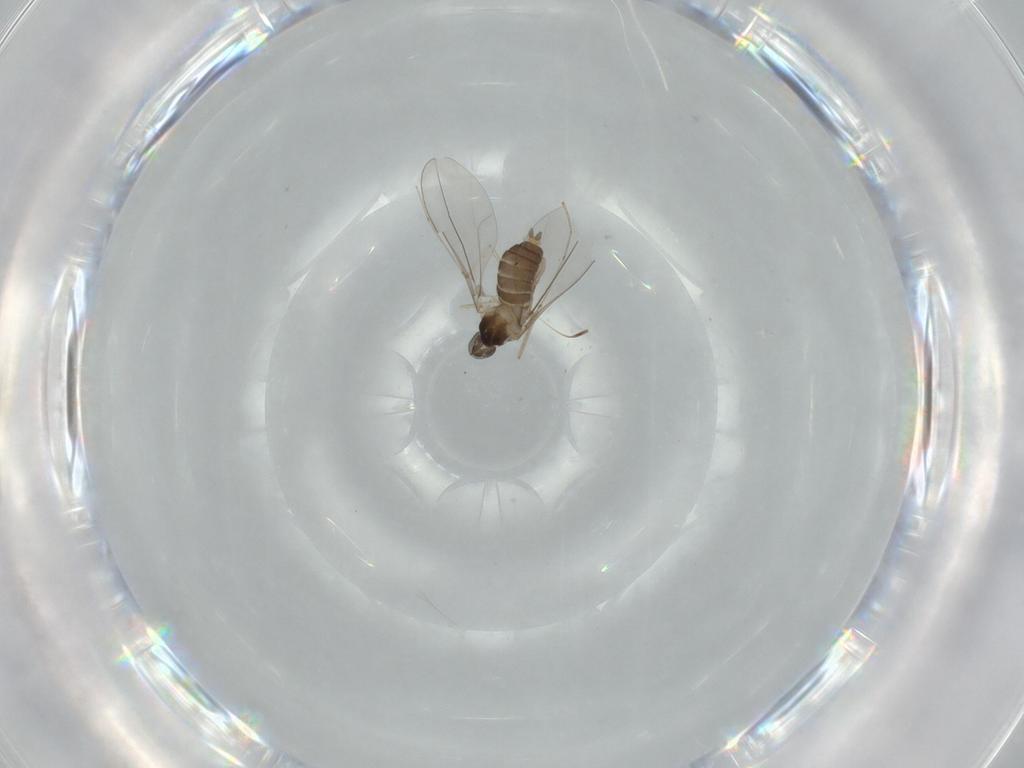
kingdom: Animalia
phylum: Arthropoda
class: Insecta
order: Diptera
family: Cecidomyiidae
